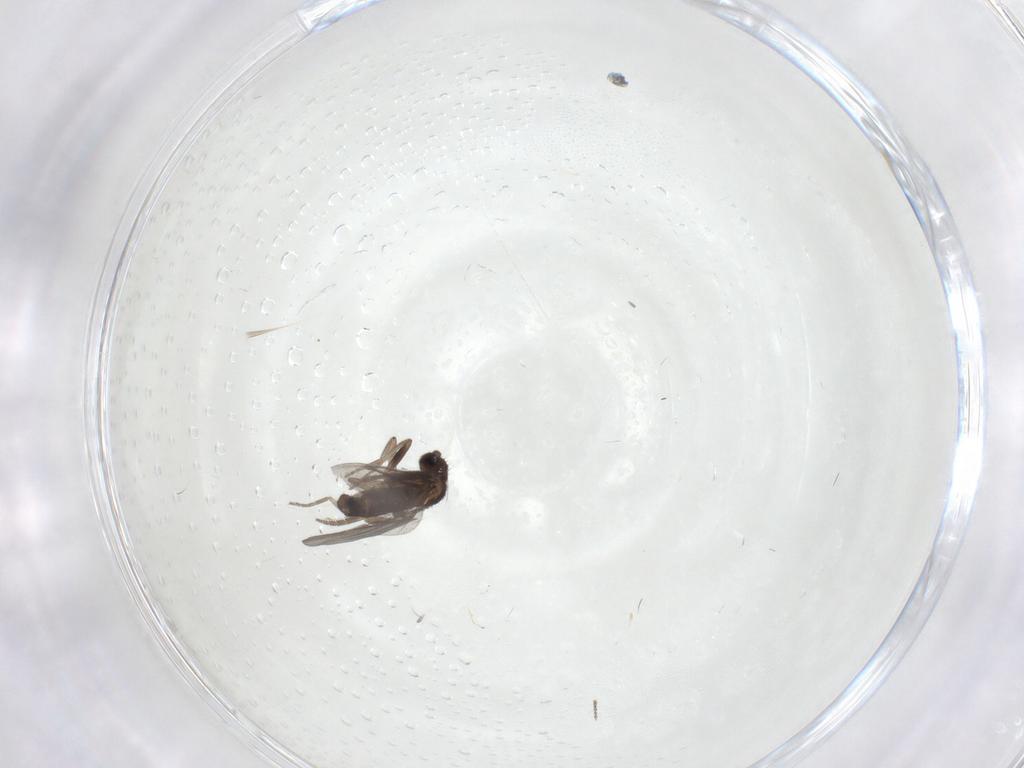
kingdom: Animalia
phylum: Arthropoda
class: Insecta
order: Diptera
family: Phoridae
